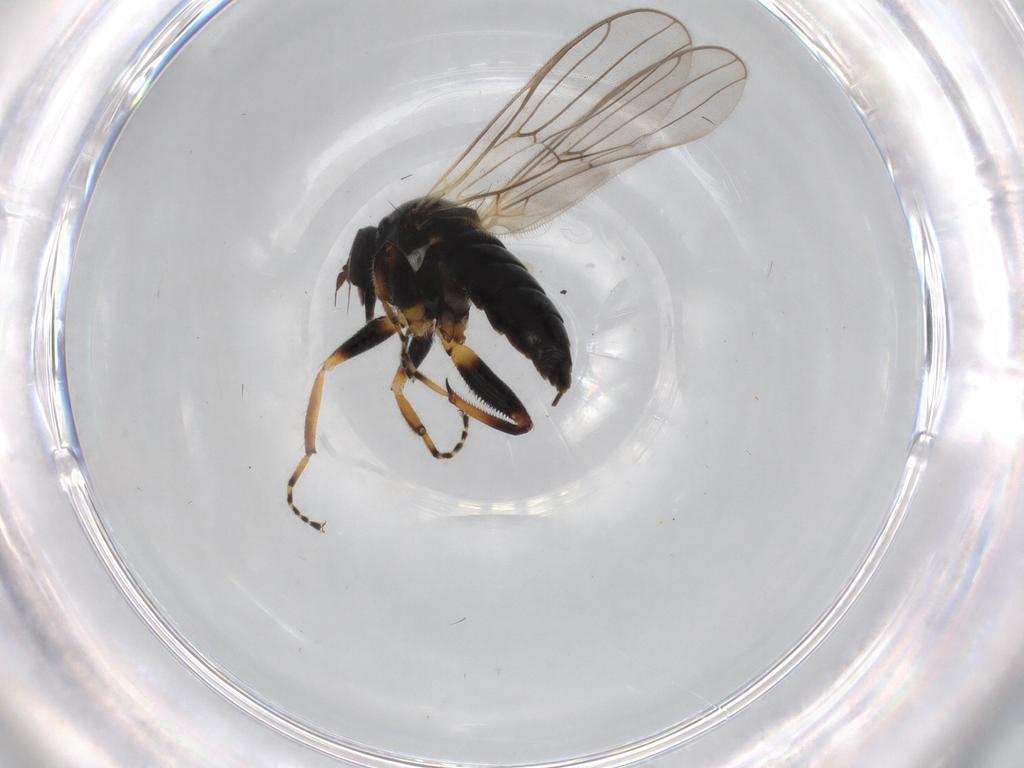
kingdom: Animalia
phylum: Arthropoda
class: Insecta
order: Diptera
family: Hybotidae
